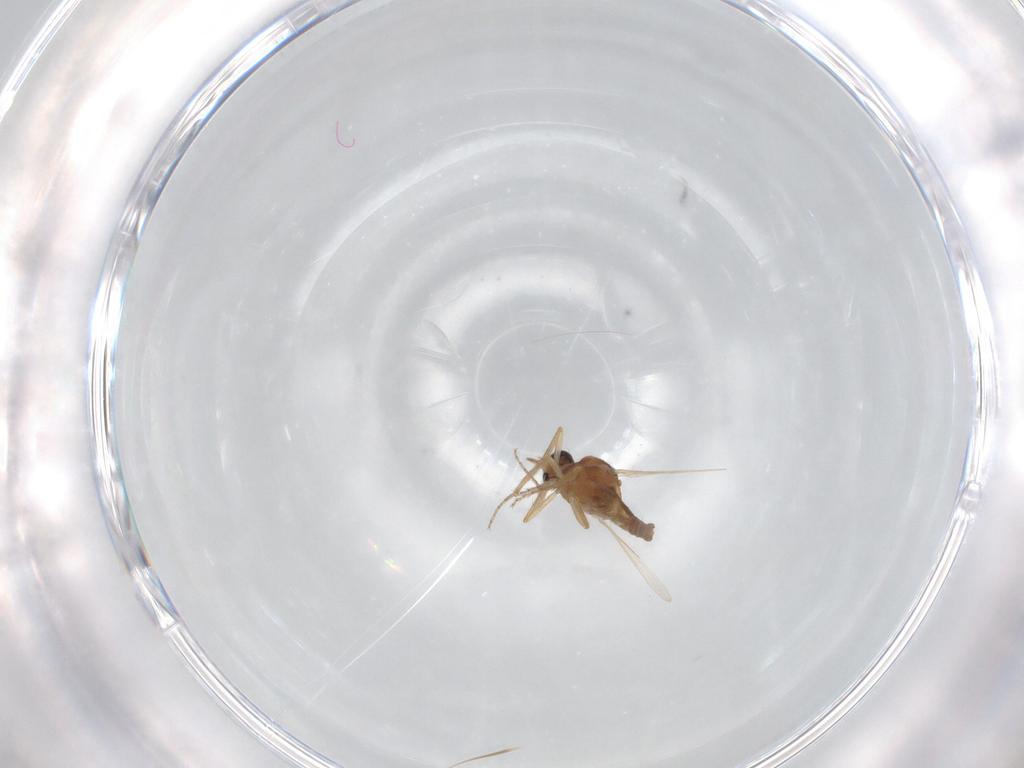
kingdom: Animalia
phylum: Arthropoda
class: Insecta
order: Diptera
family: Ceratopogonidae
